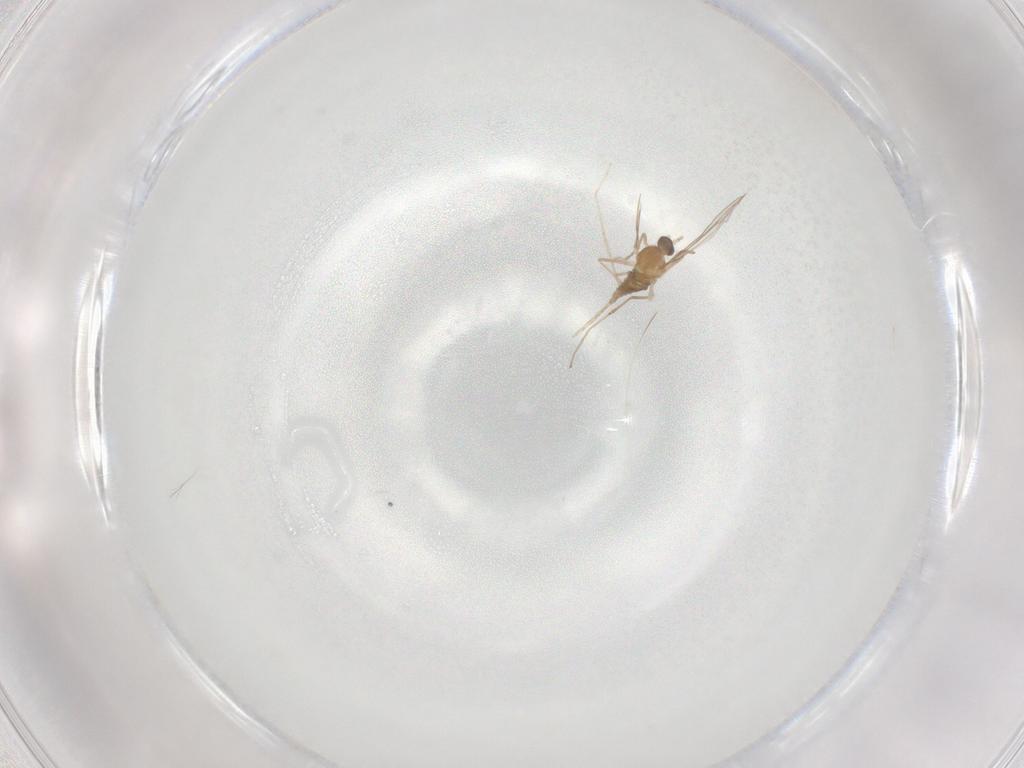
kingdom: Animalia
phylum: Arthropoda
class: Insecta
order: Diptera
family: Cecidomyiidae
